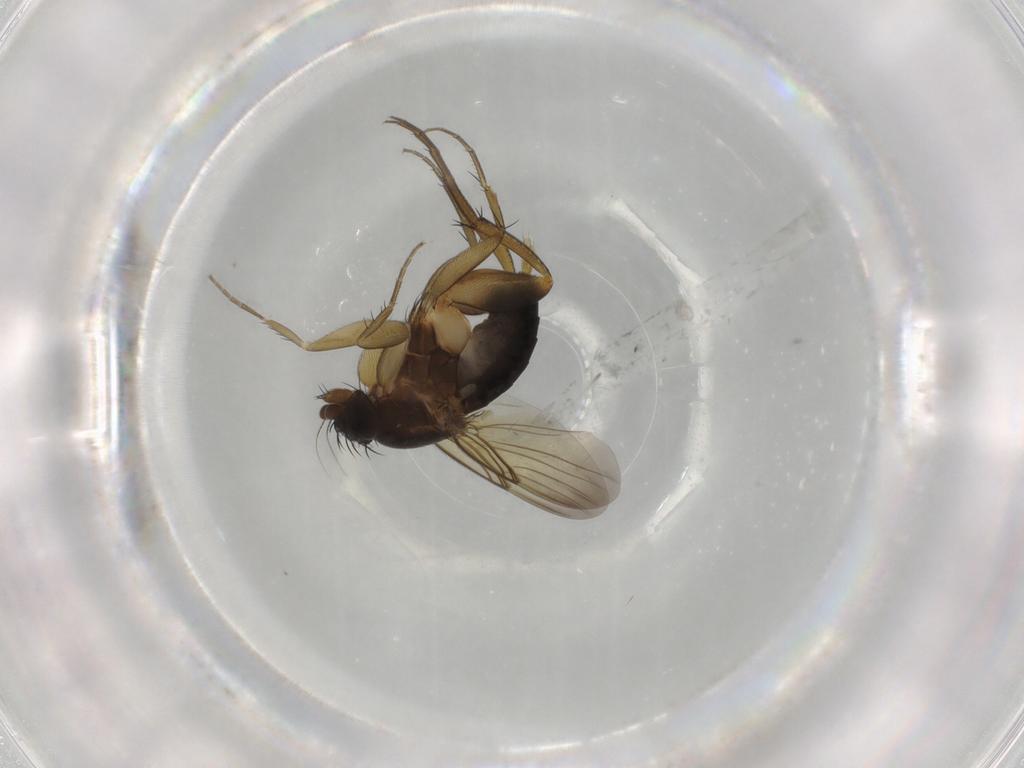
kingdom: Animalia
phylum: Arthropoda
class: Insecta
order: Diptera
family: Phoridae
